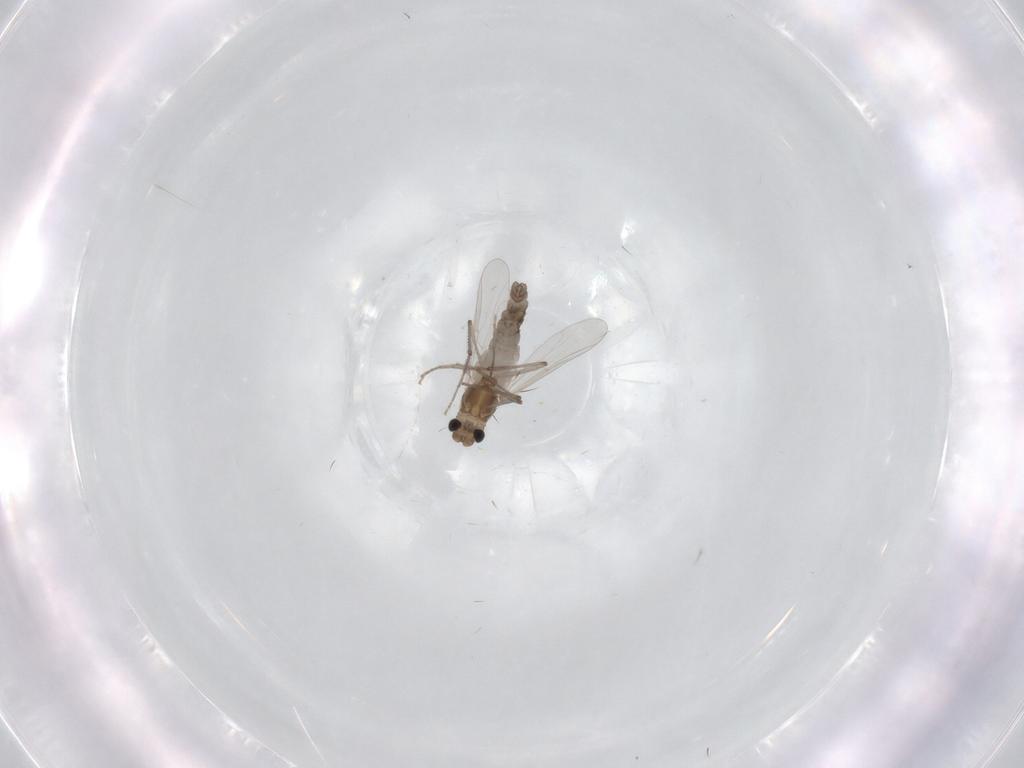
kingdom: Animalia
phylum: Arthropoda
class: Insecta
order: Diptera
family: Chironomidae
